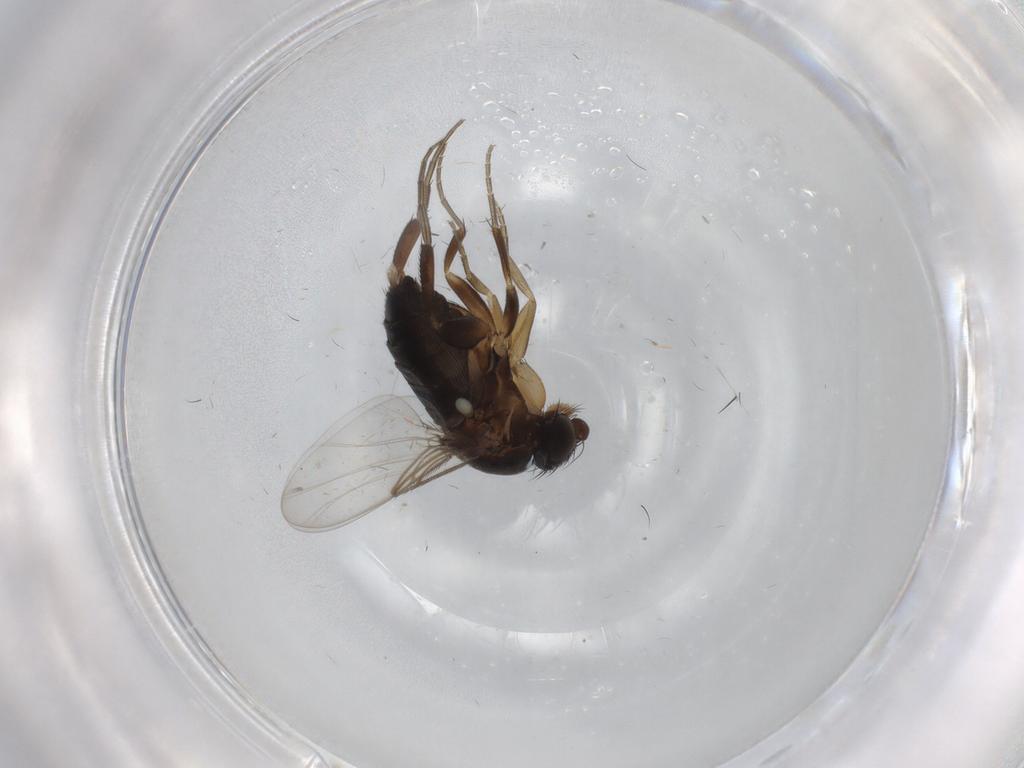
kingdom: Animalia
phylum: Arthropoda
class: Insecta
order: Diptera
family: Phoridae
